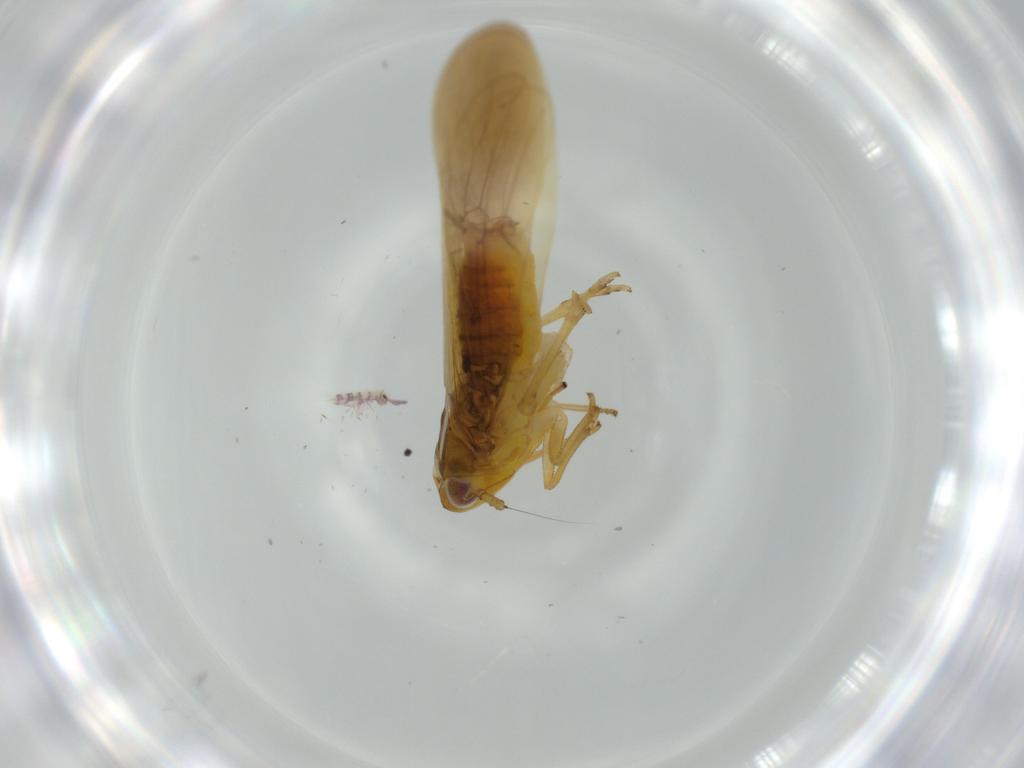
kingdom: Animalia
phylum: Arthropoda
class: Insecta
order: Hemiptera
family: Delphacidae
